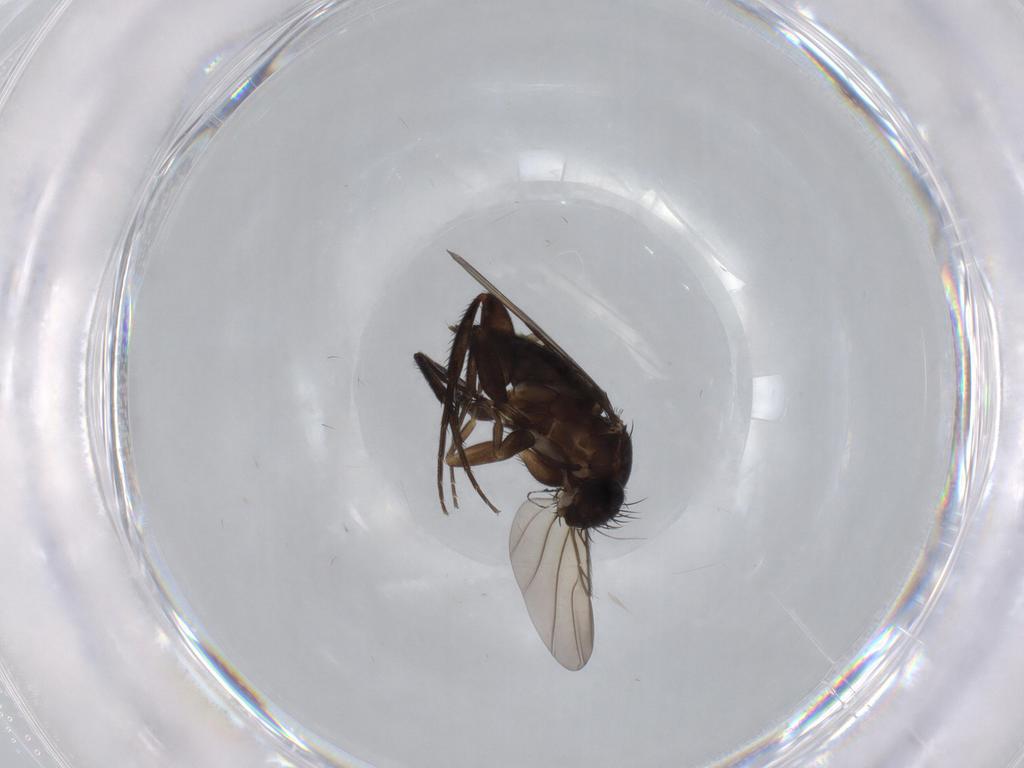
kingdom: Animalia
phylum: Arthropoda
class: Insecta
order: Diptera
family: Phoridae
